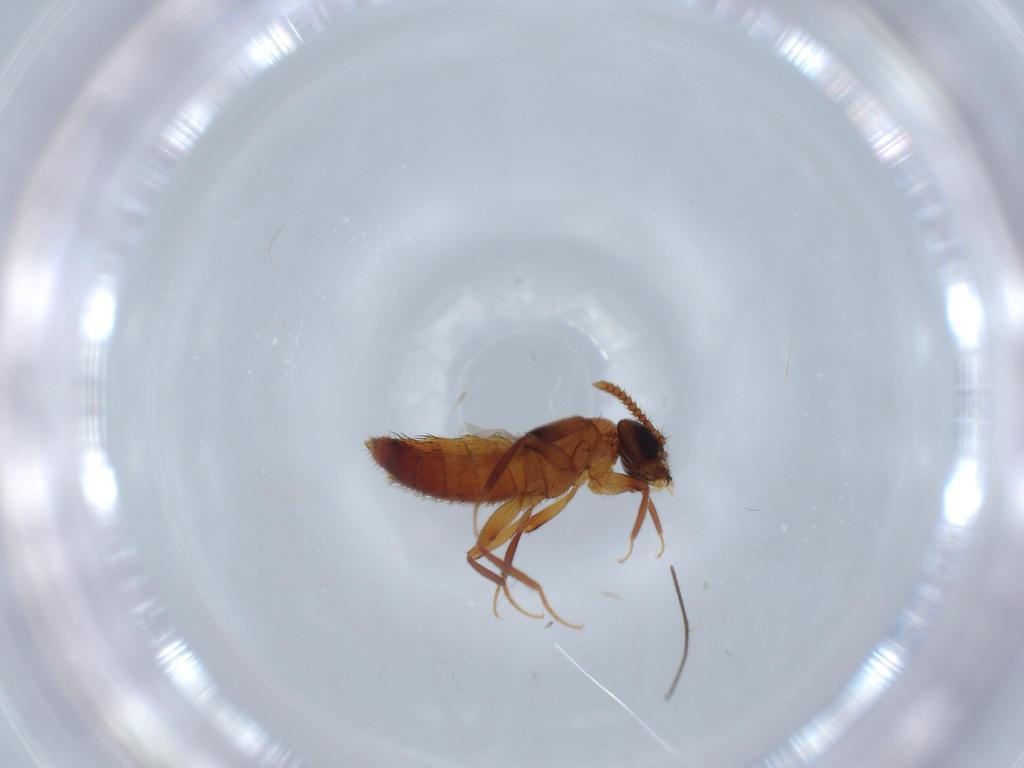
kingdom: Animalia
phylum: Arthropoda
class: Insecta
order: Coleoptera
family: Staphylinidae
